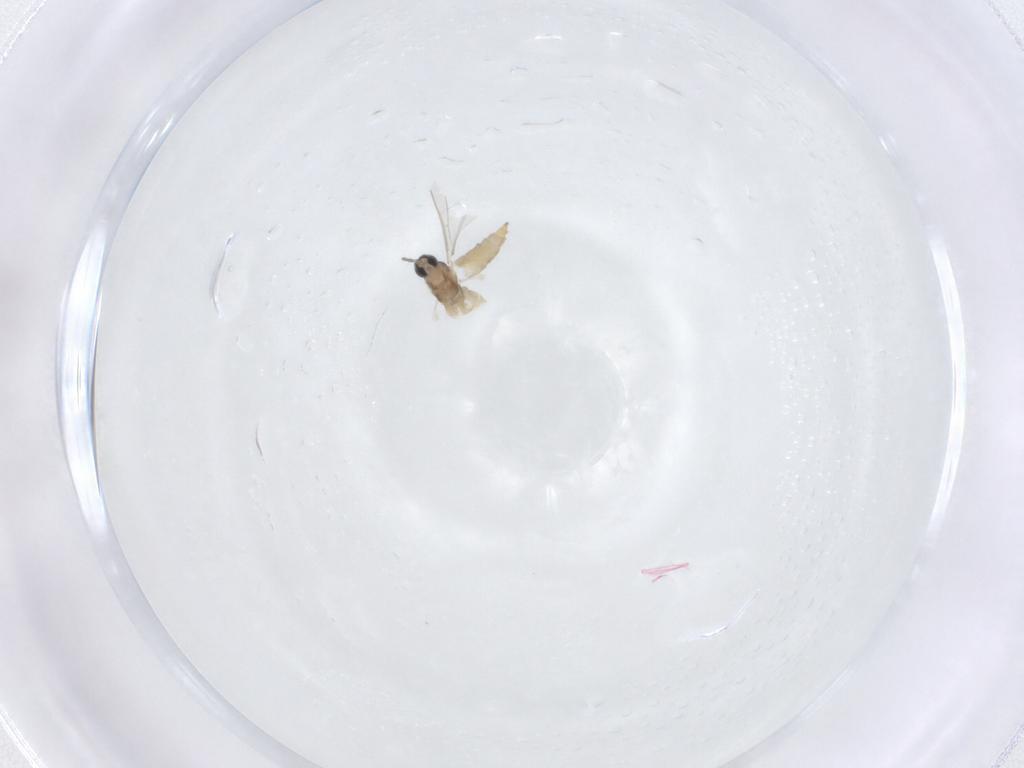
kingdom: Animalia
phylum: Arthropoda
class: Insecta
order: Diptera
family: Cecidomyiidae
